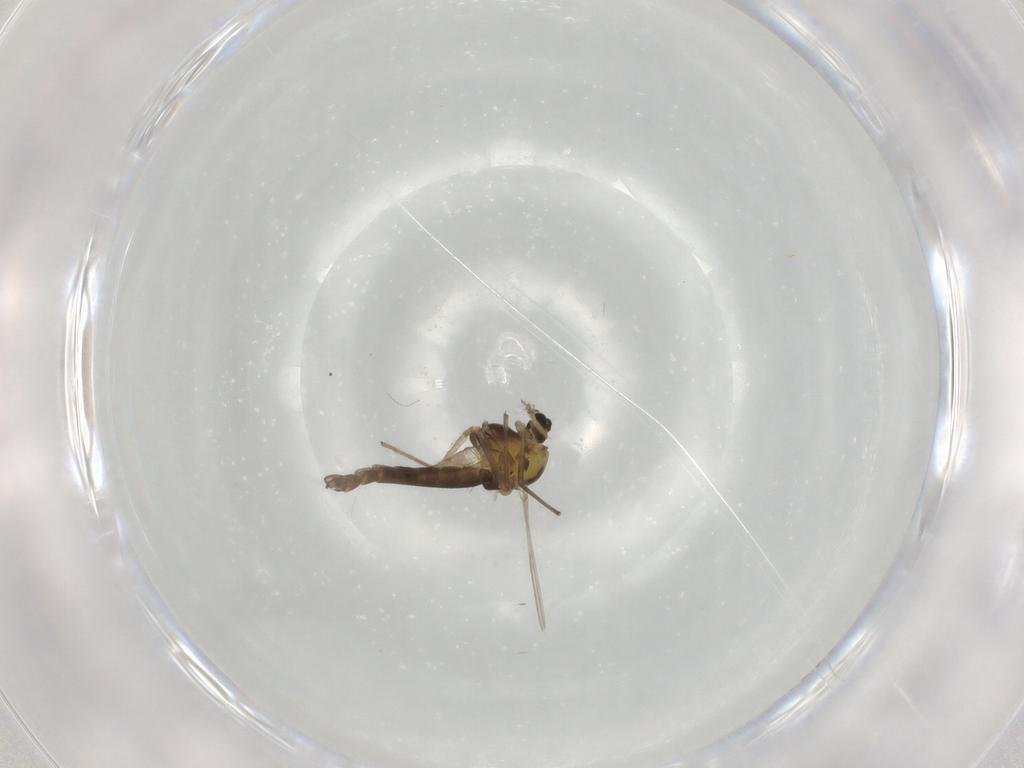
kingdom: Animalia
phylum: Arthropoda
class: Insecta
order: Diptera
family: Chironomidae
